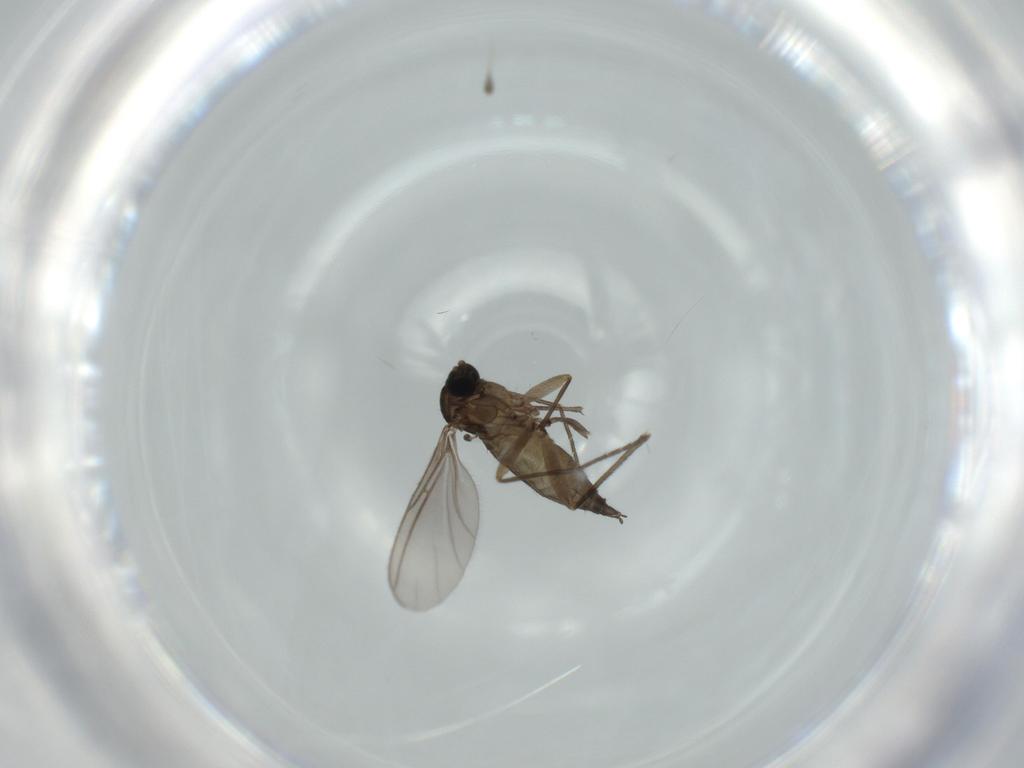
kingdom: Animalia
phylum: Arthropoda
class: Insecta
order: Diptera
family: Sciaridae
